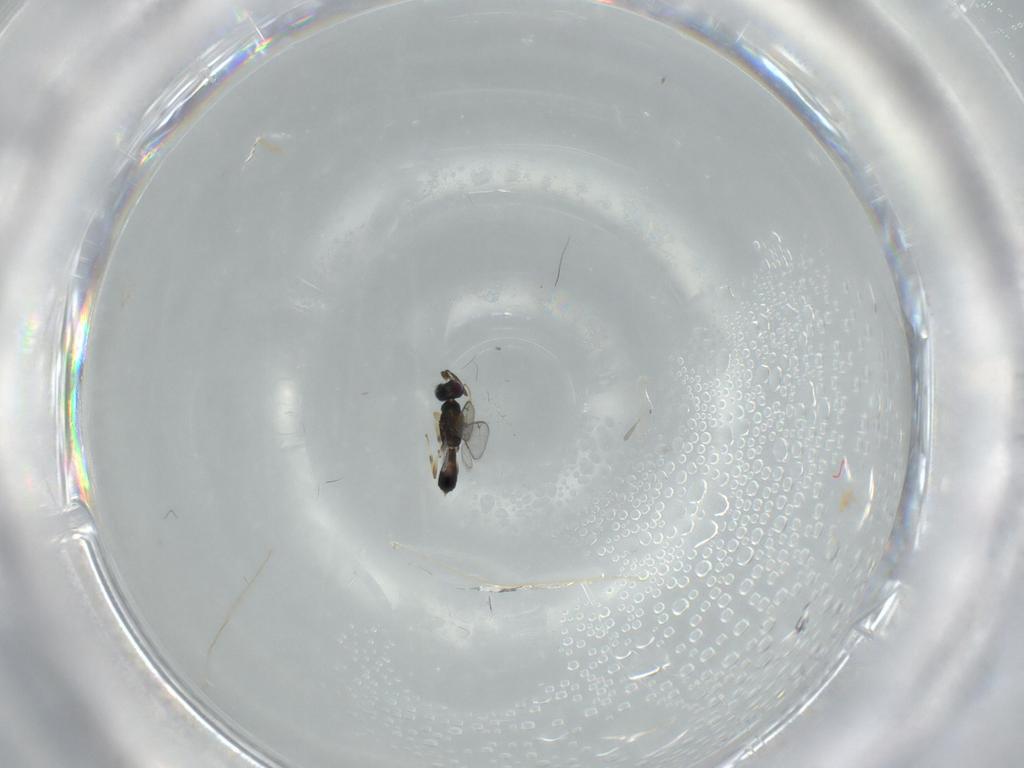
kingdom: Animalia
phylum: Arthropoda
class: Insecta
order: Hymenoptera
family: Eupelmidae
